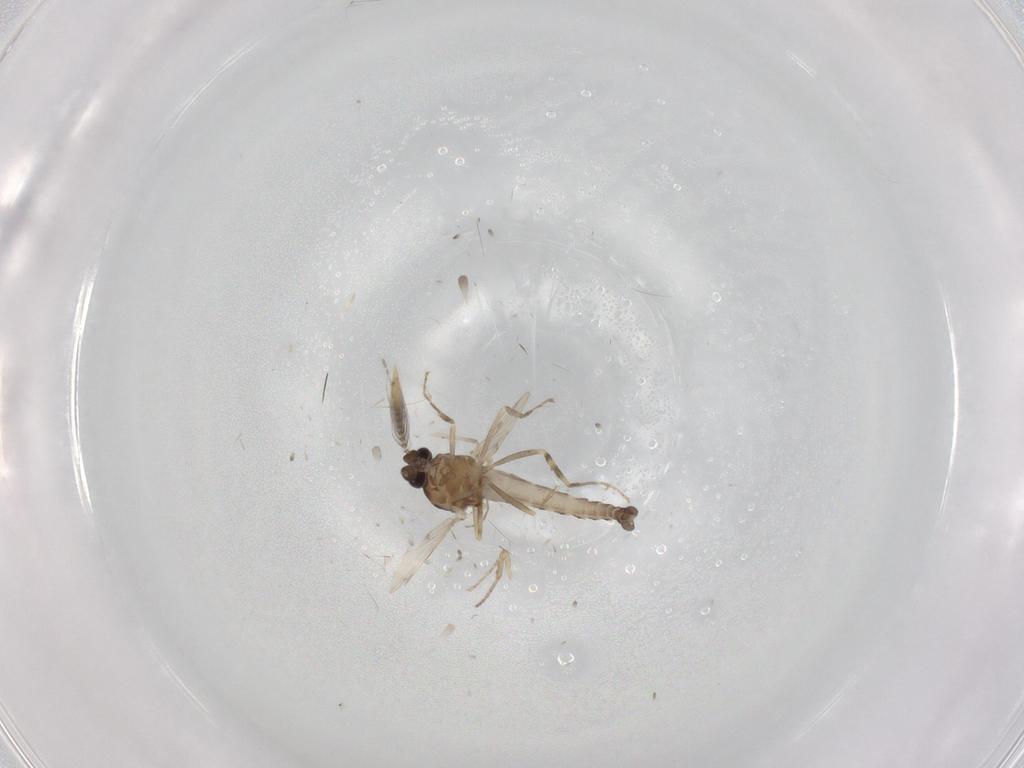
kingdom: Animalia
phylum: Arthropoda
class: Insecta
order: Diptera
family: Ceratopogonidae
